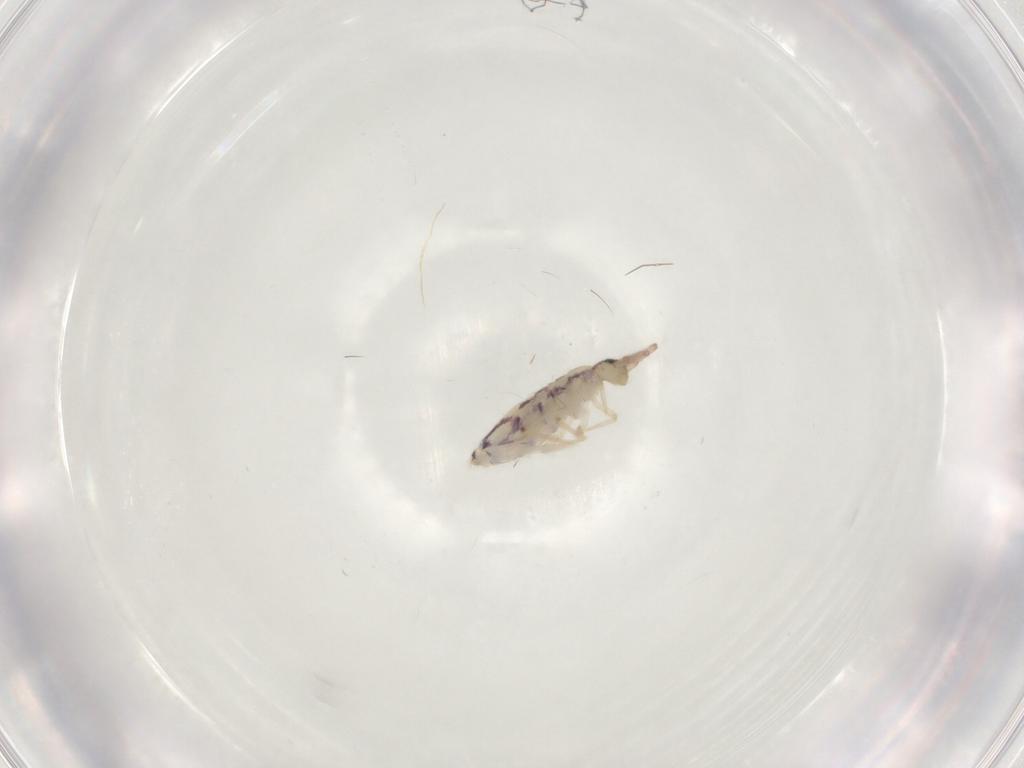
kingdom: Animalia
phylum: Arthropoda
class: Collembola
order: Entomobryomorpha
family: Entomobryidae
